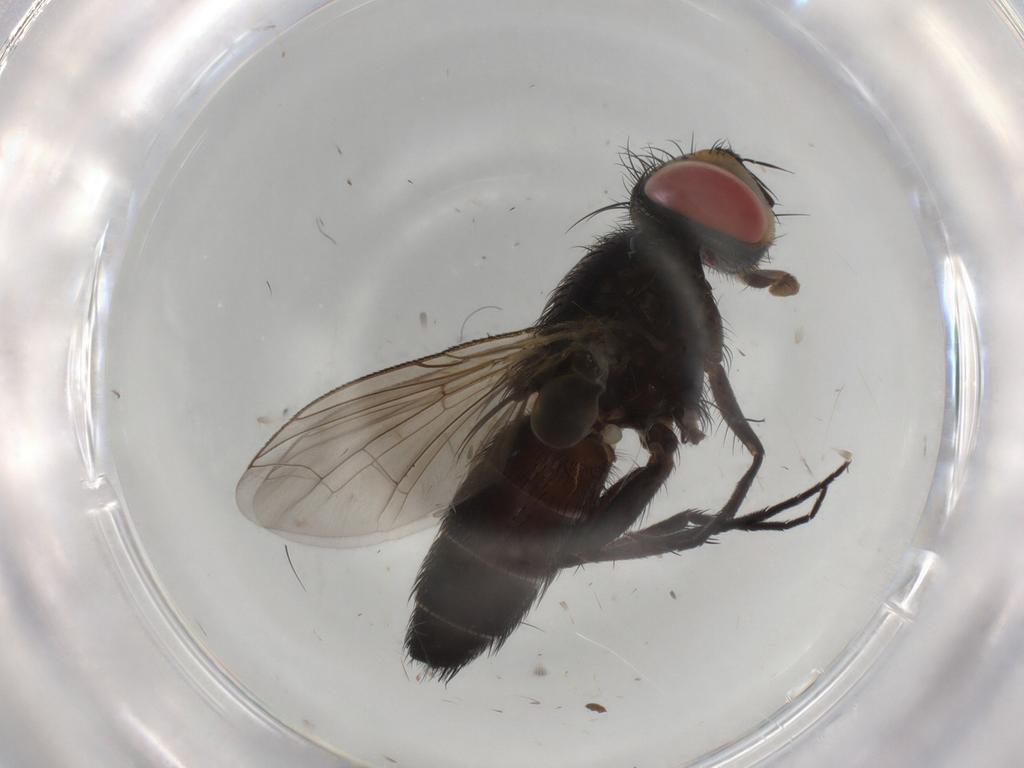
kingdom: Animalia
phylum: Arthropoda
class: Insecta
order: Diptera
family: Anthomyiidae
